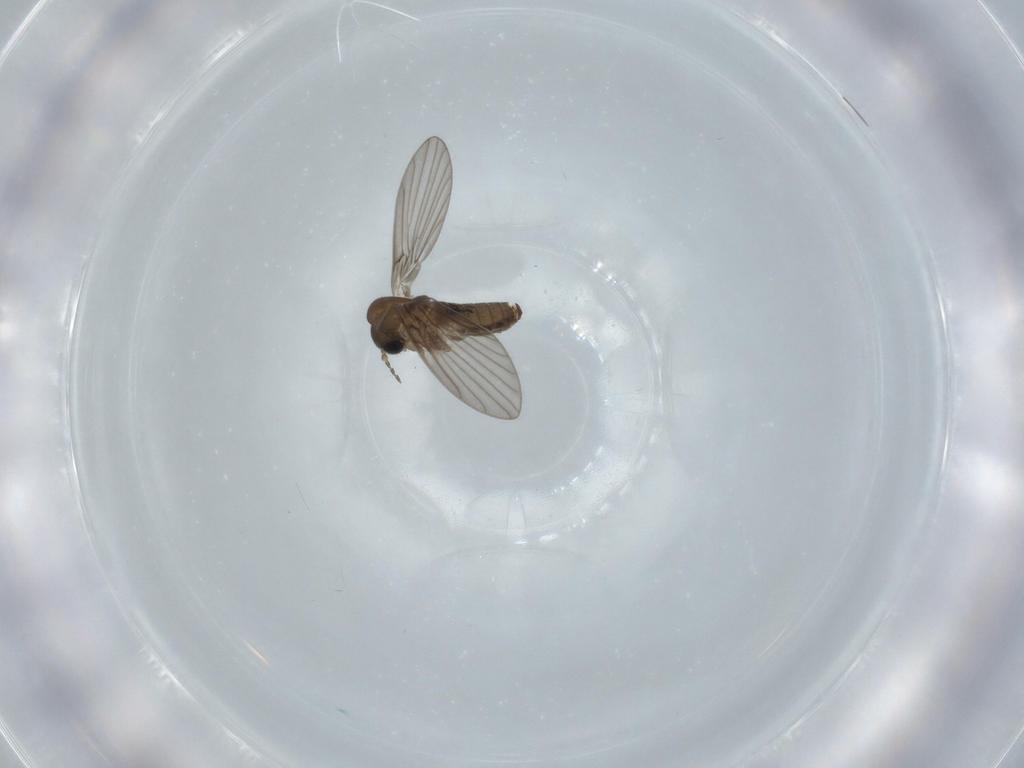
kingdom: Animalia
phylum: Arthropoda
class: Insecta
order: Diptera
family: Psychodidae
